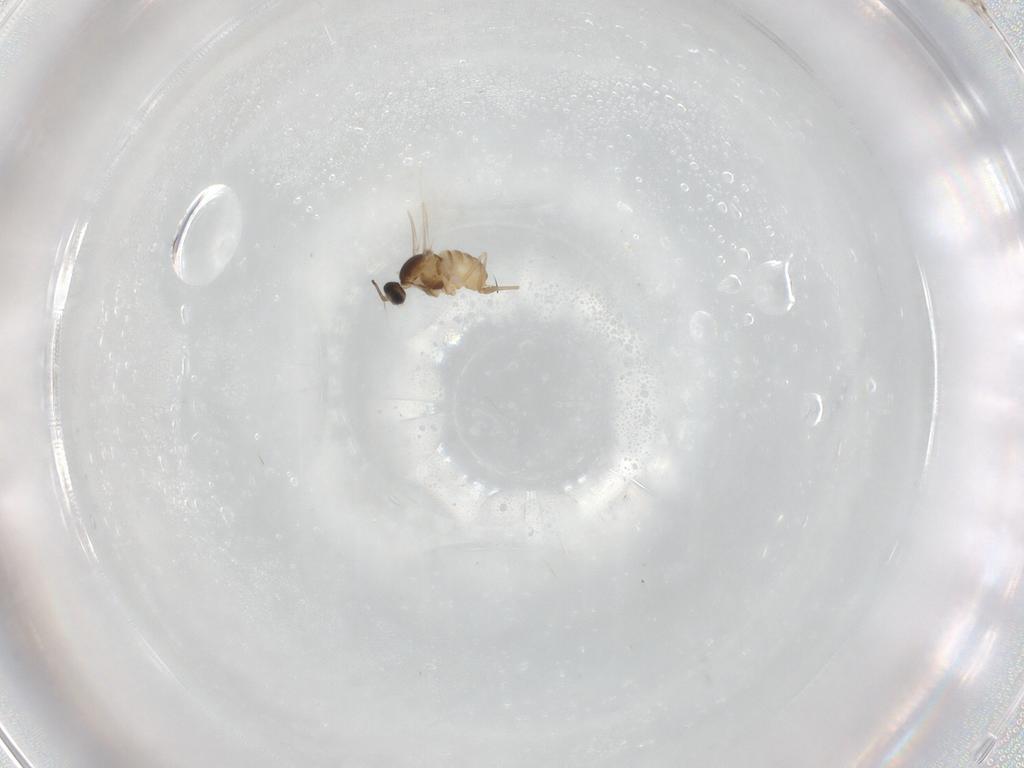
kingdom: Animalia
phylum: Arthropoda
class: Insecta
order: Diptera
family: Cecidomyiidae
